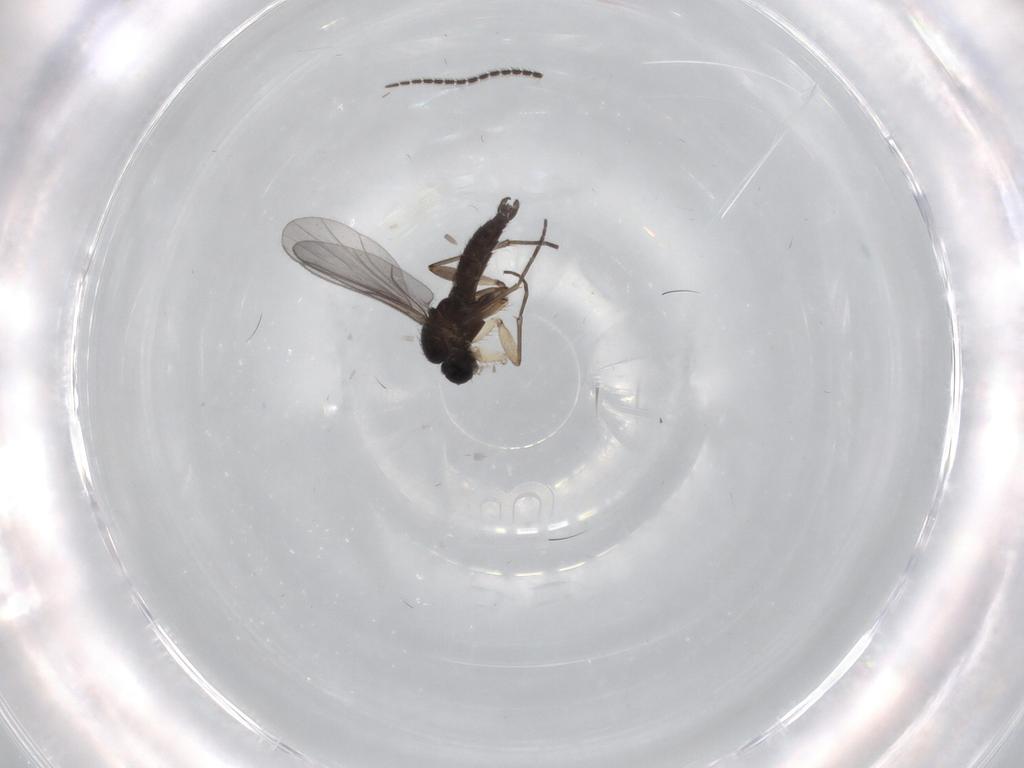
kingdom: Animalia
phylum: Arthropoda
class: Insecta
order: Diptera
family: Sciaridae
